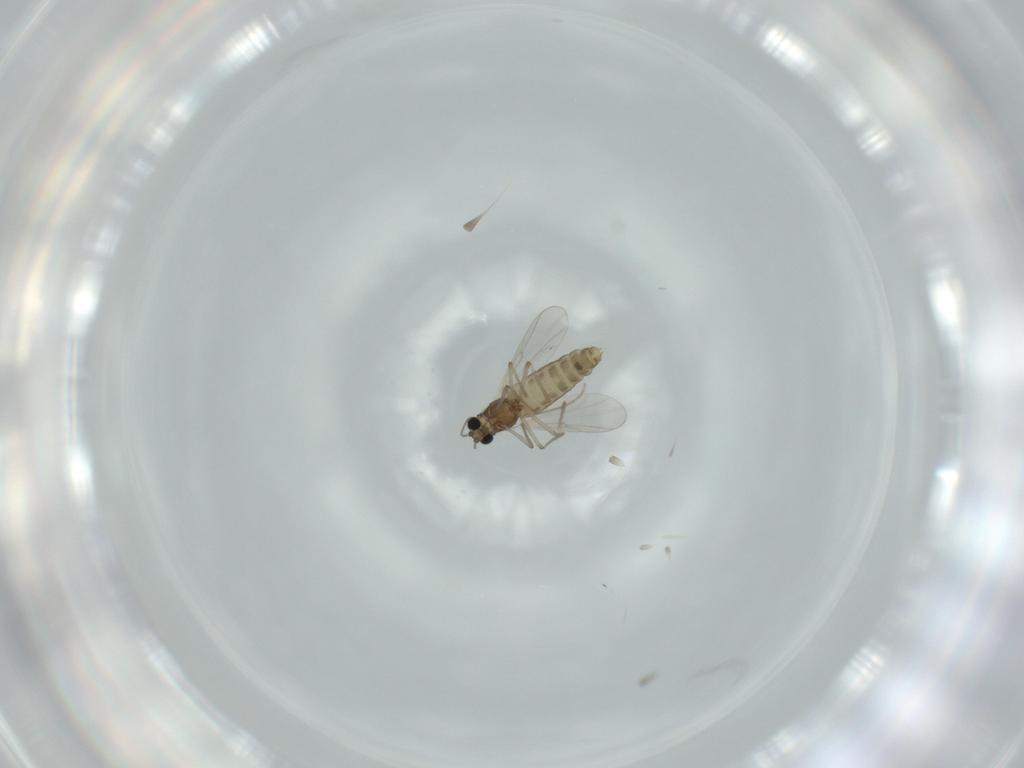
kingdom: Animalia
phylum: Arthropoda
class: Insecta
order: Diptera
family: Chironomidae
